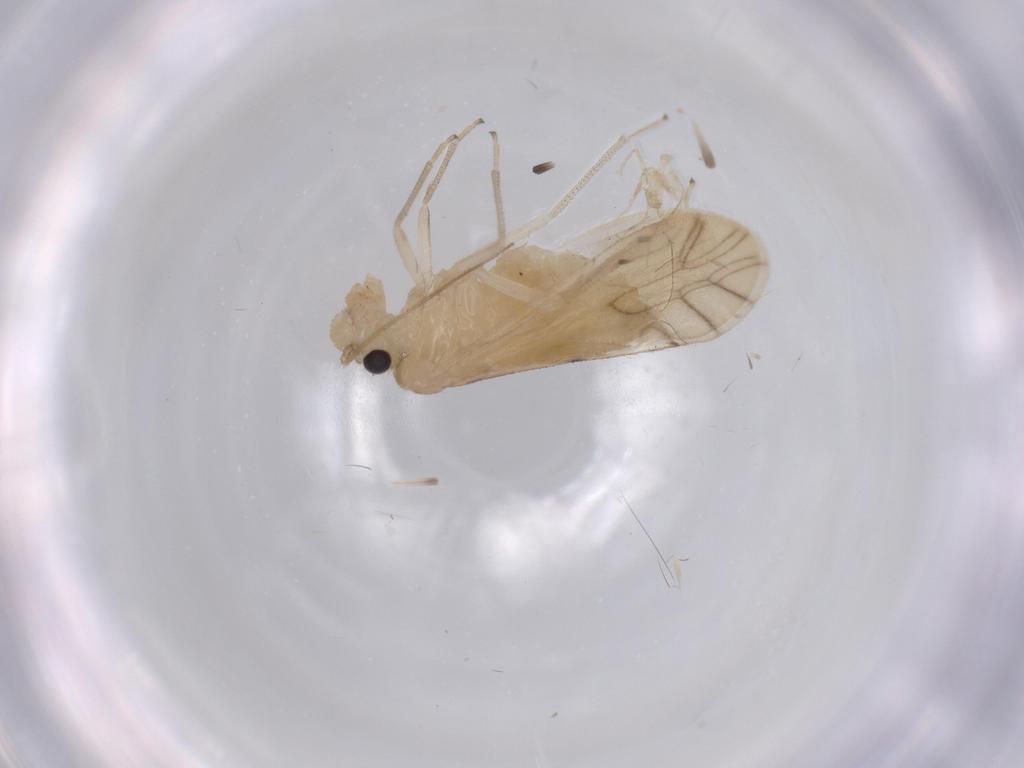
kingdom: Animalia
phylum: Arthropoda
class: Insecta
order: Psocodea
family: Caeciliusidae
